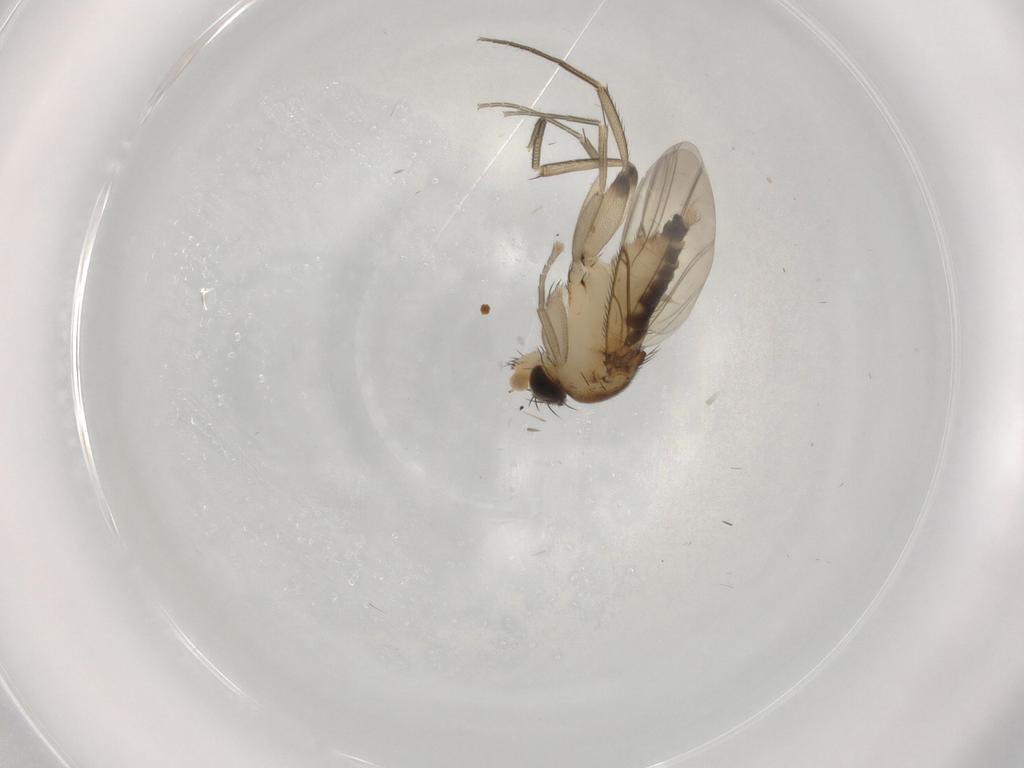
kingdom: Animalia
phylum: Arthropoda
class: Insecta
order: Diptera
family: Phoridae
